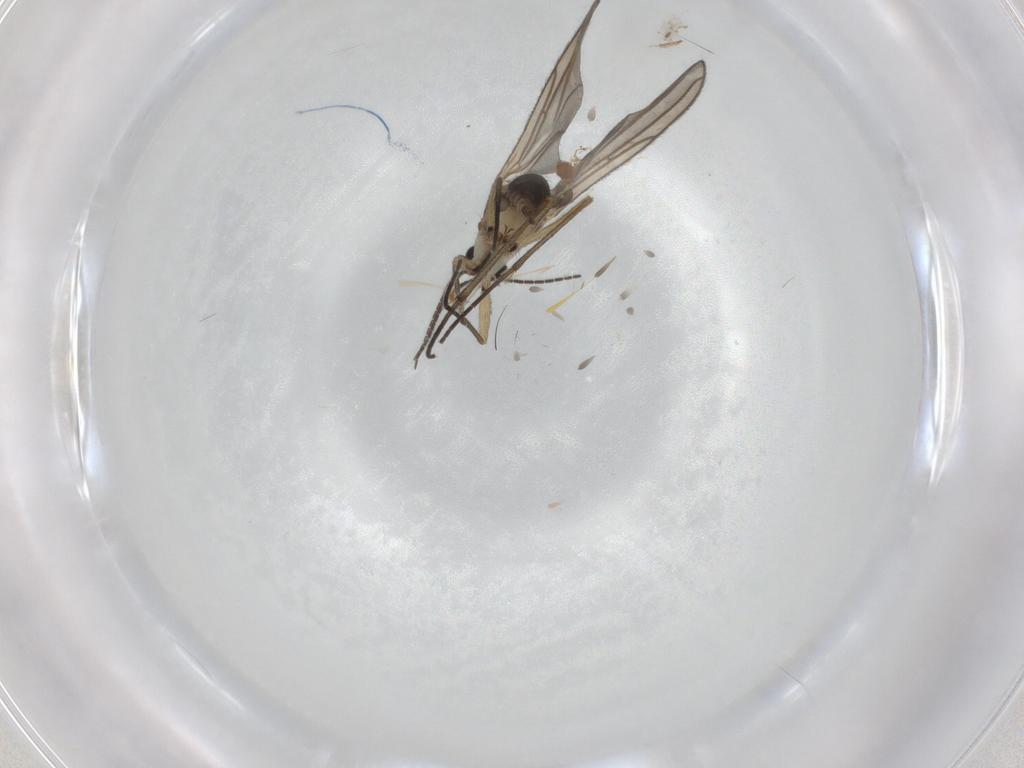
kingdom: Animalia
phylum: Arthropoda
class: Insecta
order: Diptera
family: Sciaridae
